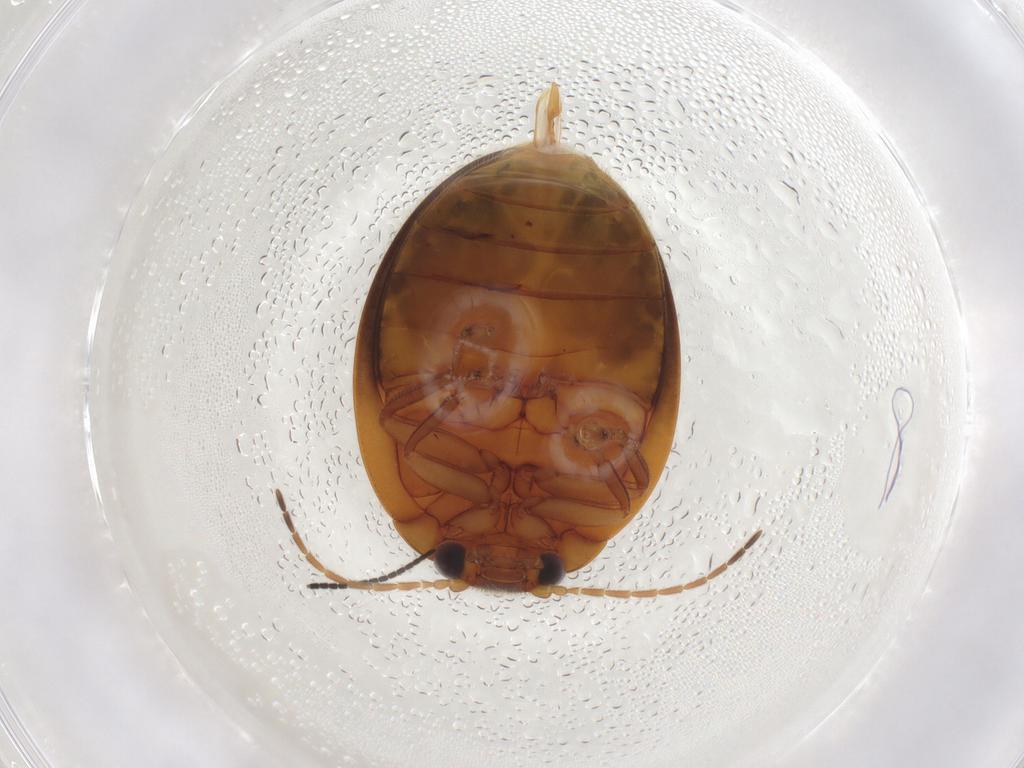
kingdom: Animalia
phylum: Arthropoda
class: Insecta
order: Coleoptera
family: Scirtidae
